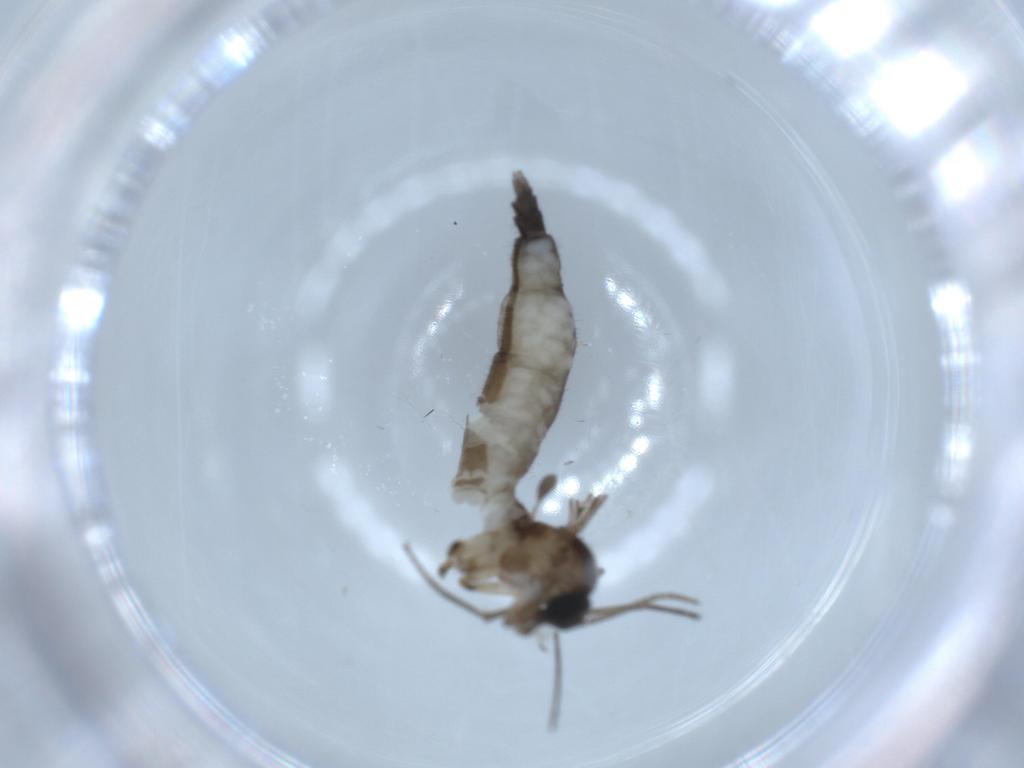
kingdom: Animalia
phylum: Arthropoda
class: Insecta
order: Diptera
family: Sciaridae
